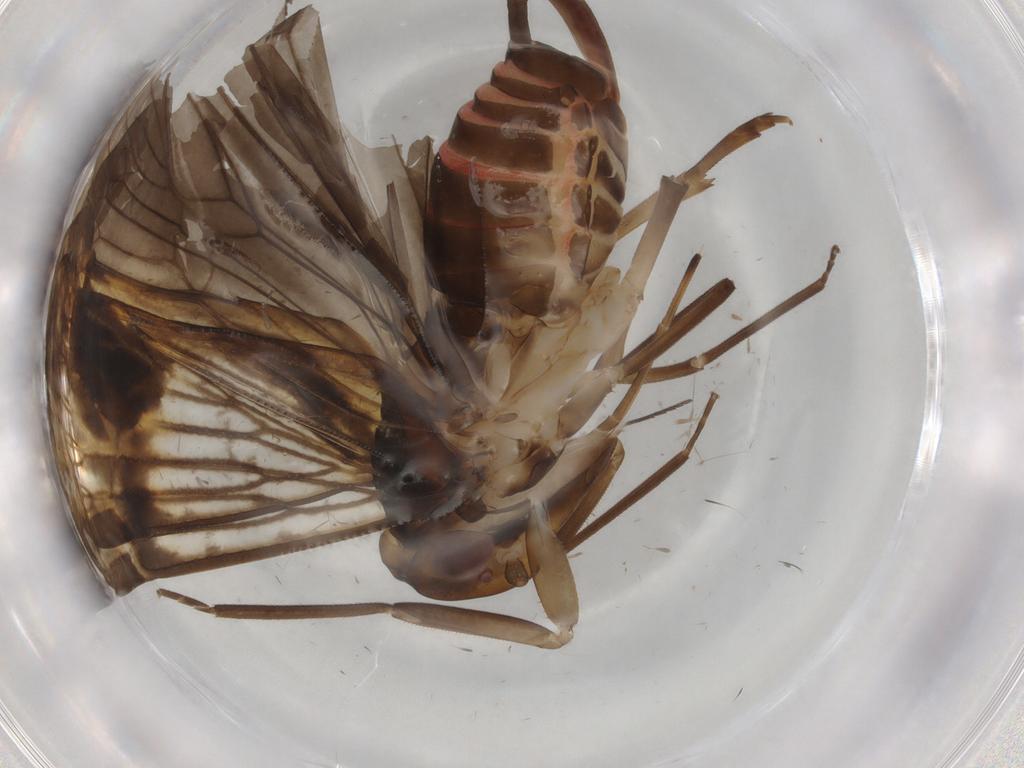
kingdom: Animalia
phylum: Arthropoda
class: Insecta
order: Hemiptera
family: Cixiidae
